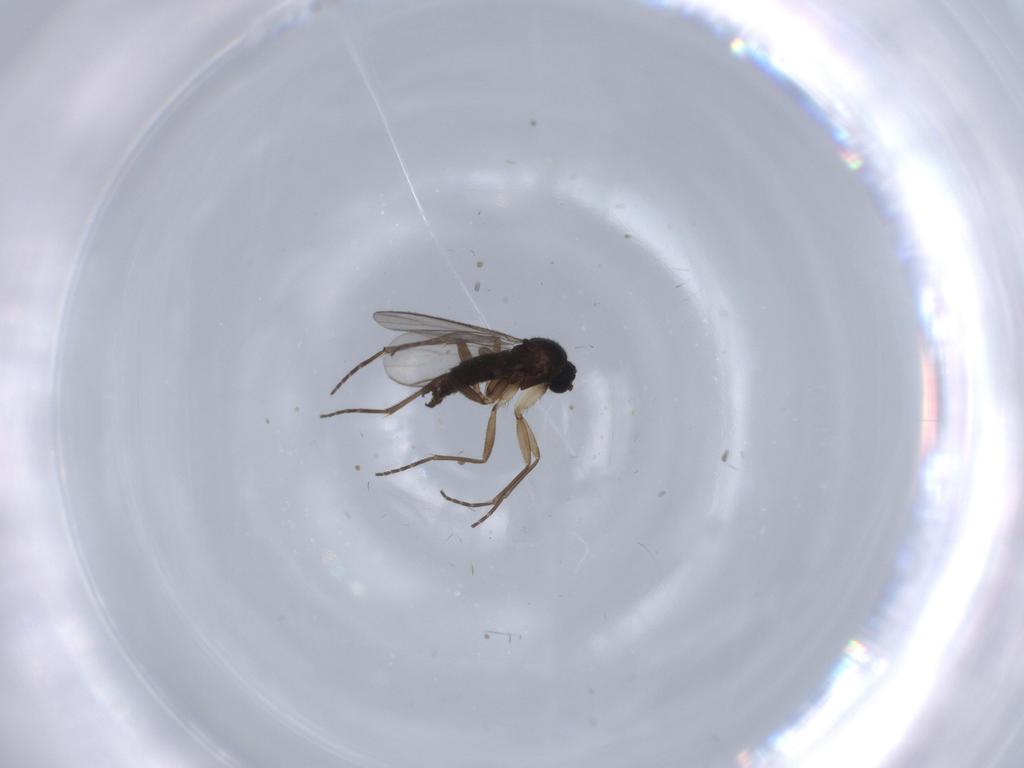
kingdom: Animalia
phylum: Arthropoda
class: Insecta
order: Diptera
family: Sciaridae
